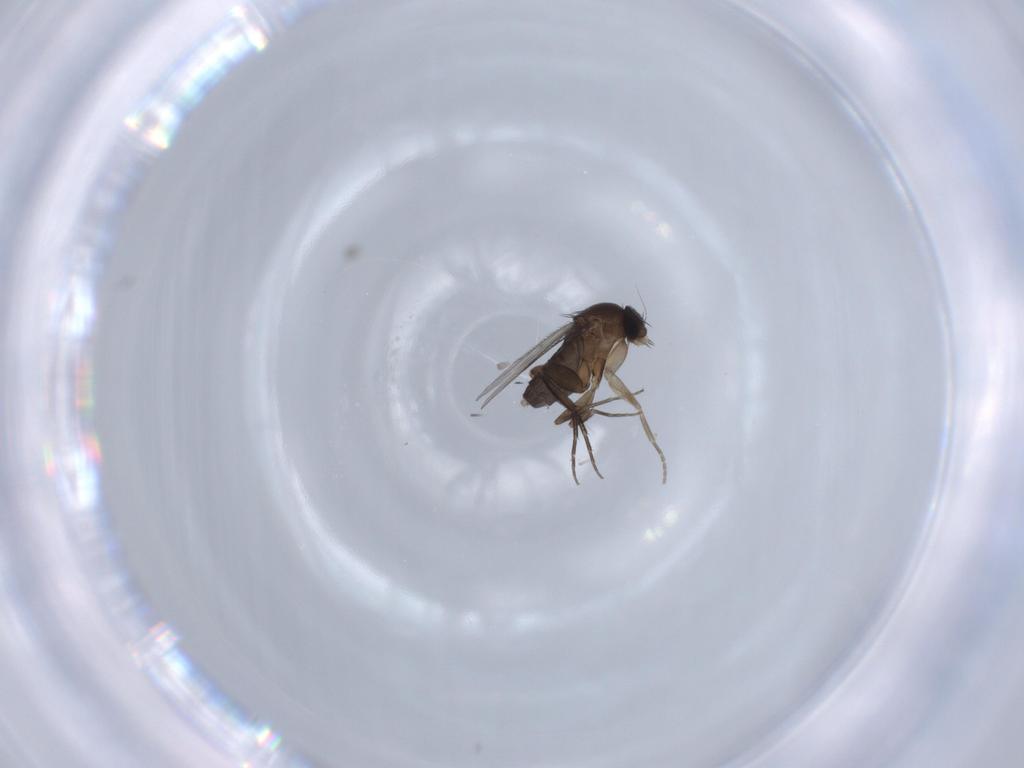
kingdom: Animalia
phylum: Arthropoda
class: Insecta
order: Diptera
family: Phoridae
